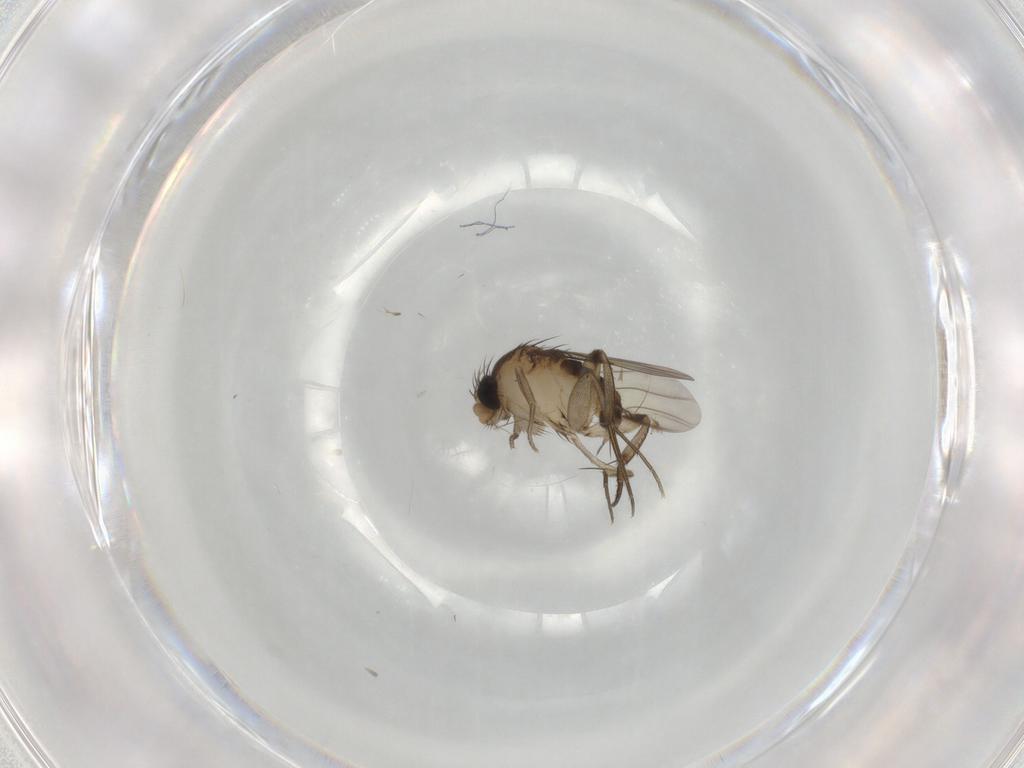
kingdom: Animalia
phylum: Arthropoda
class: Insecta
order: Diptera
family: Phoridae
